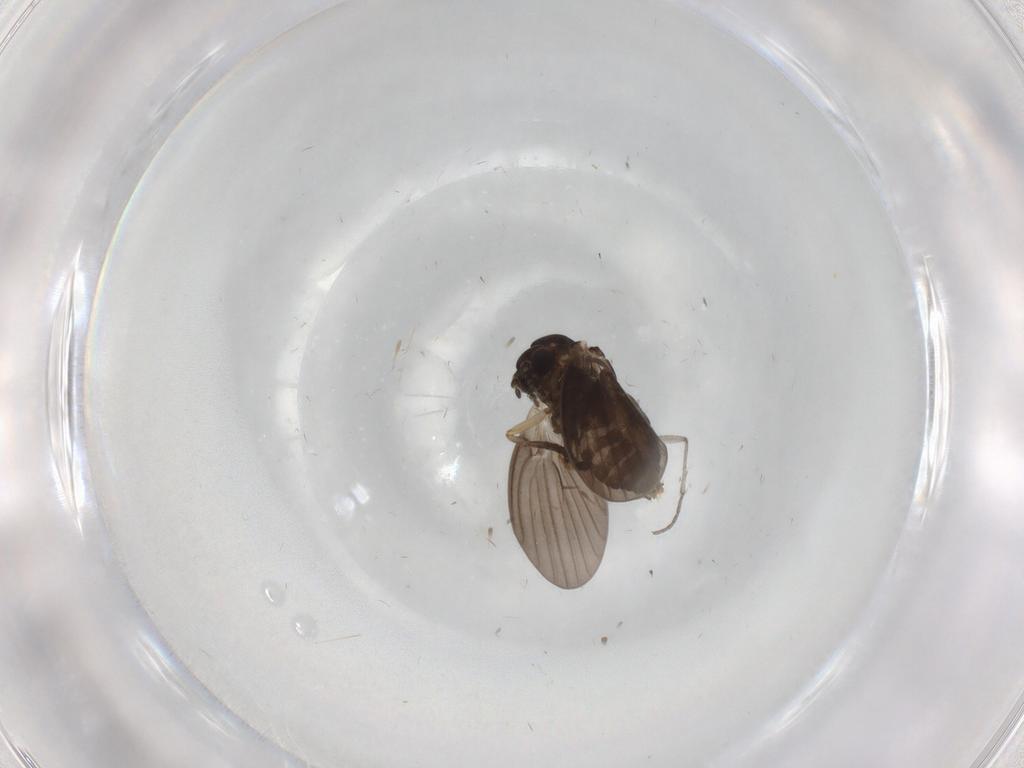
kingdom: Animalia
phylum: Arthropoda
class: Insecta
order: Diptera
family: Psychodidae
